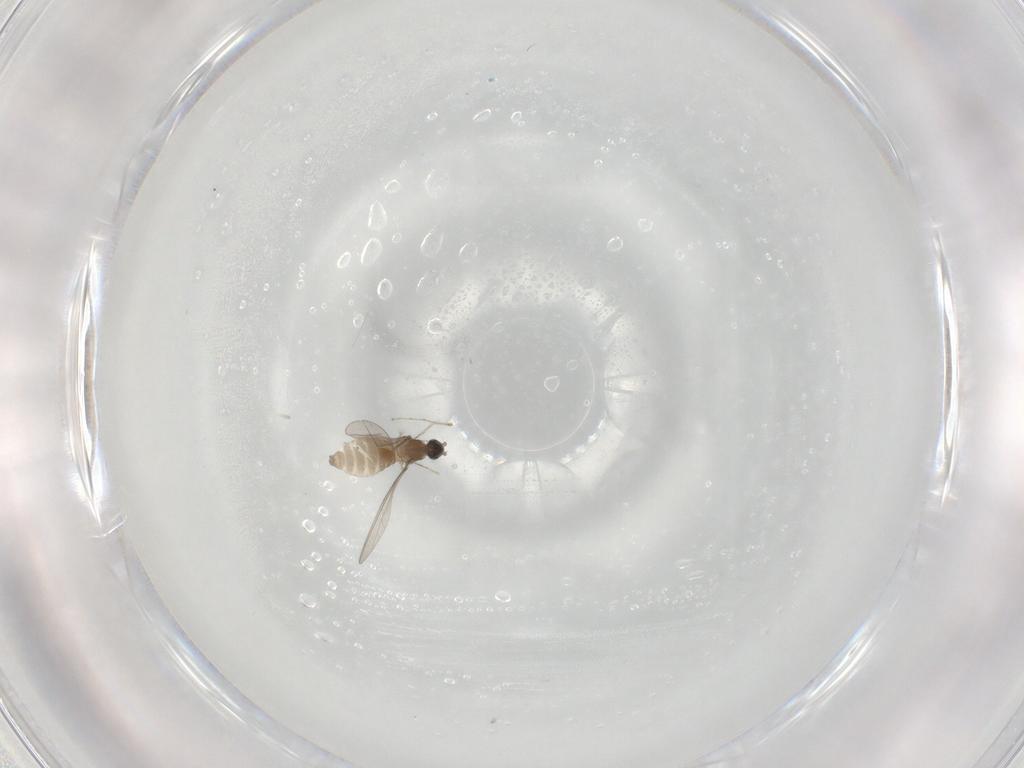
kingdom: Animalia
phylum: Arthropoda
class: Insecta
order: Diptera
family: Cecidomyiidae
